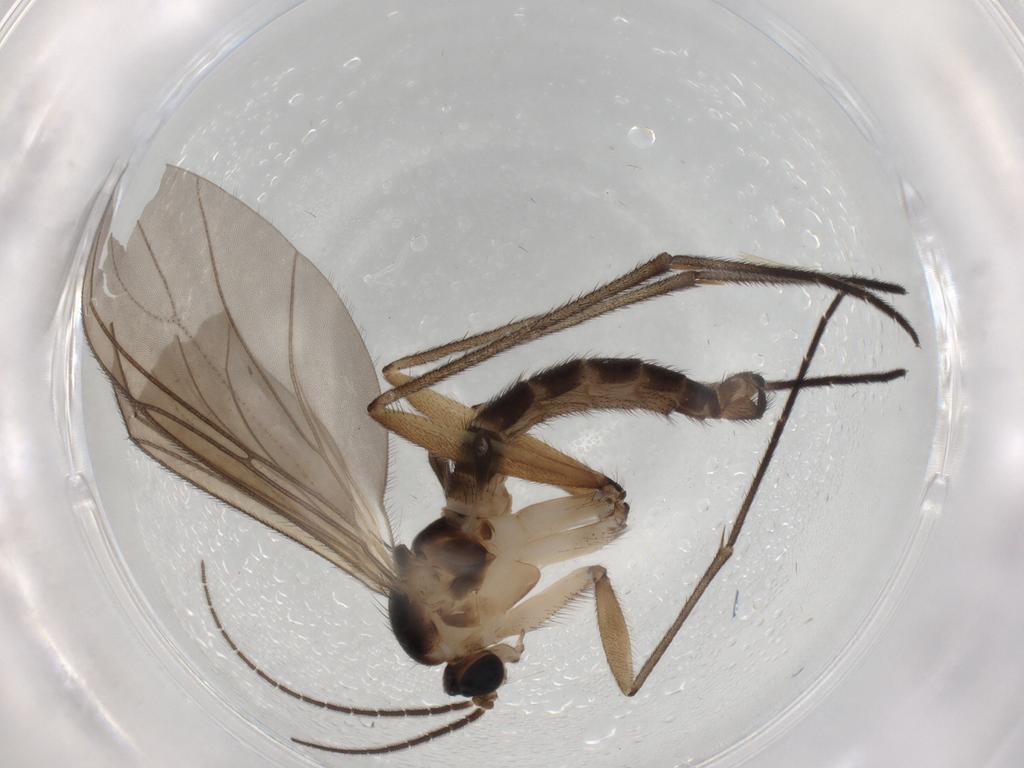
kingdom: Animalia
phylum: Arthropoda
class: Insecta
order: Diptera
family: Sciaridae
